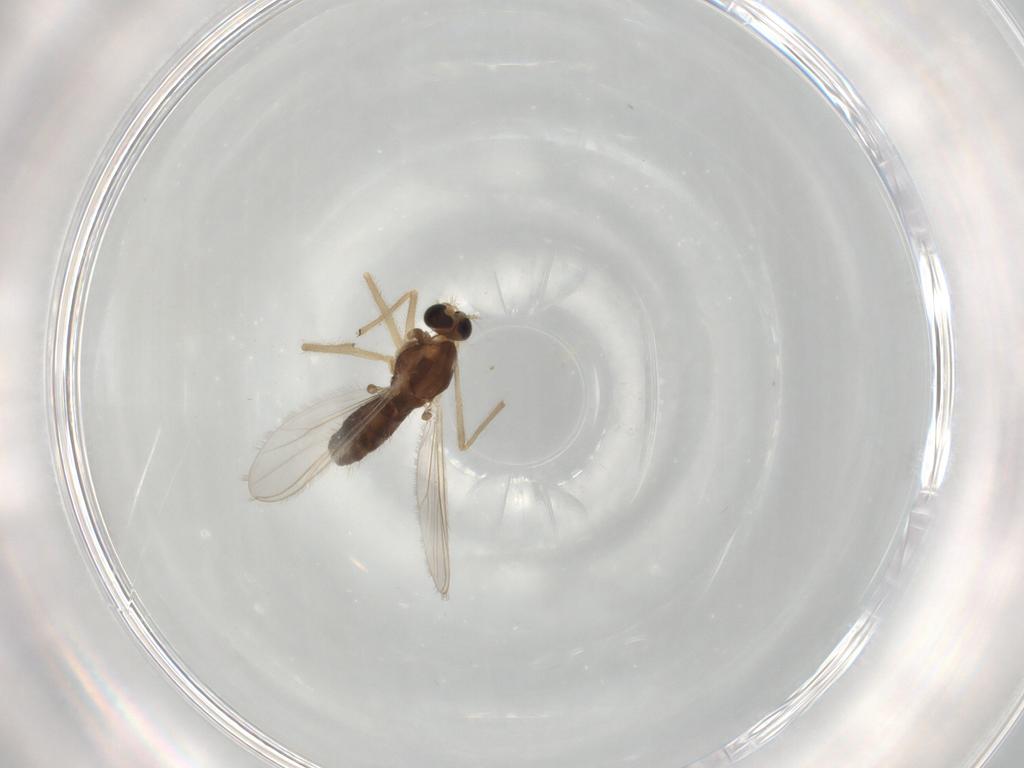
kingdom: Animalia
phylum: Arthropoda
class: Insecta
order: Diptera
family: Chironomidae
